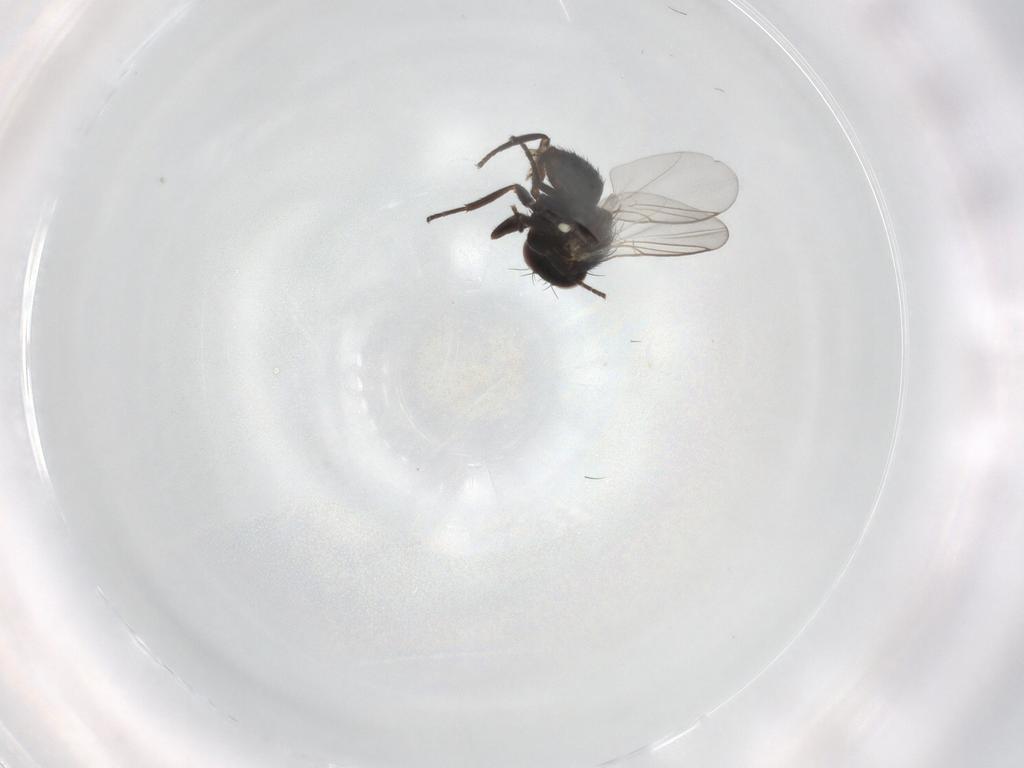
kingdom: Animalia
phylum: Arthropoda
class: Insecta
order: Diptera
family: Agromyzidae
